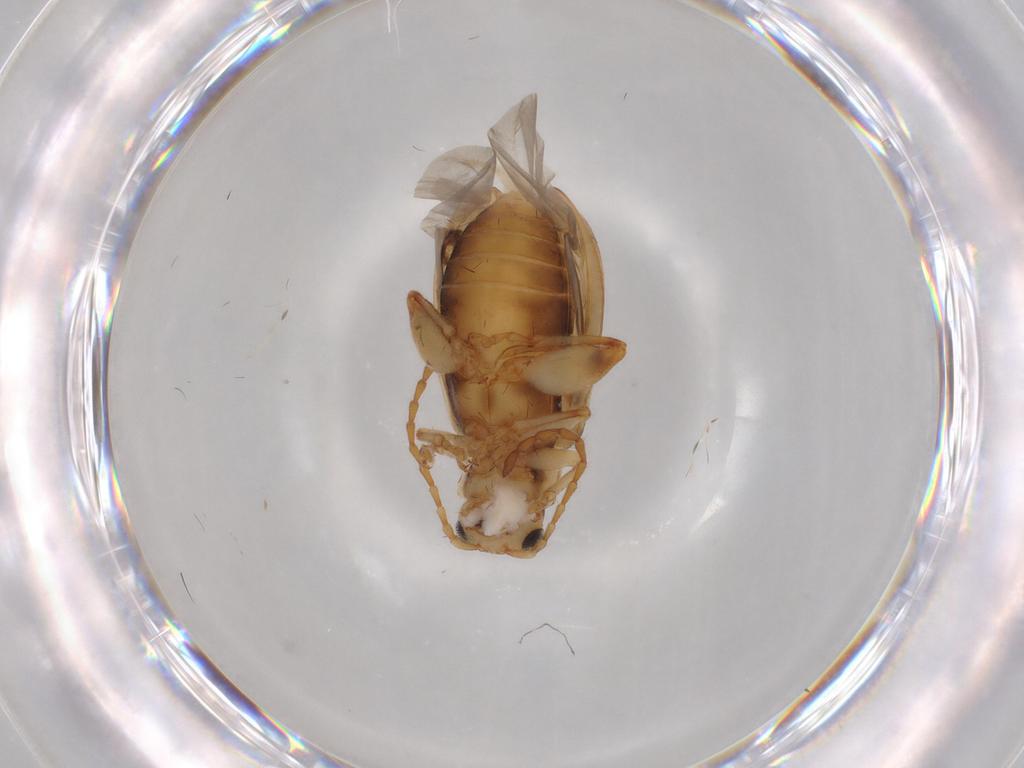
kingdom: Animalia
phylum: Arthropoda
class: Insecta
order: Coleoptera
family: Chrysomelidae
